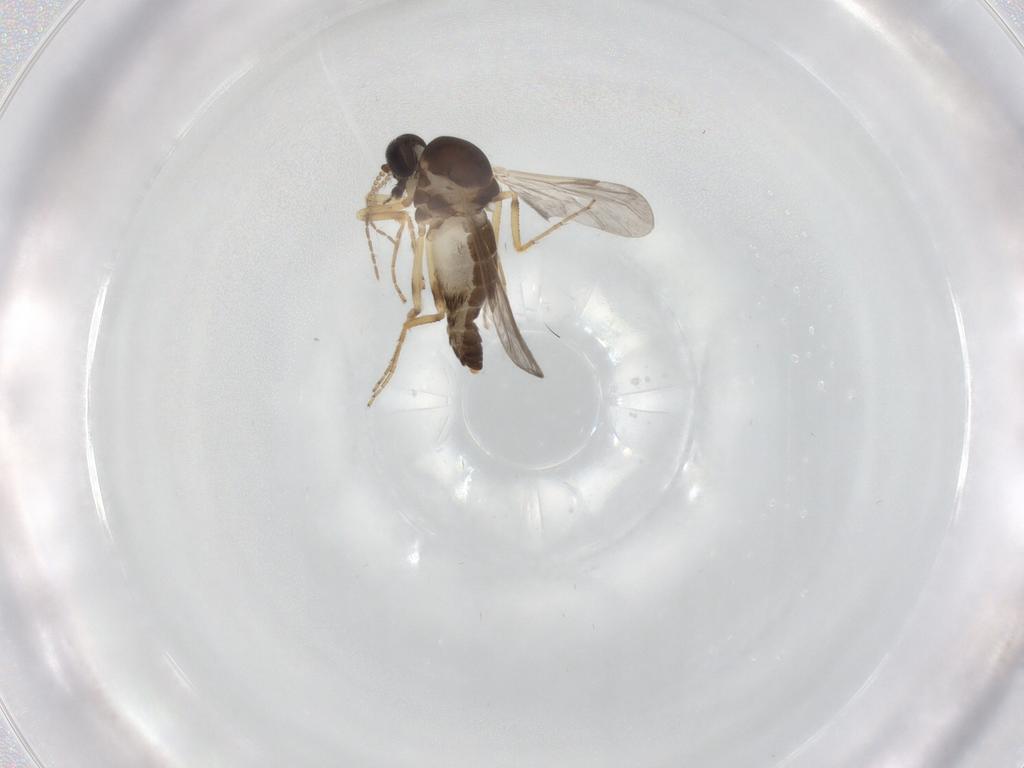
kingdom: Animalia
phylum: Arthropoda
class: Insecta
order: Diptera
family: Ceratopogonidae
